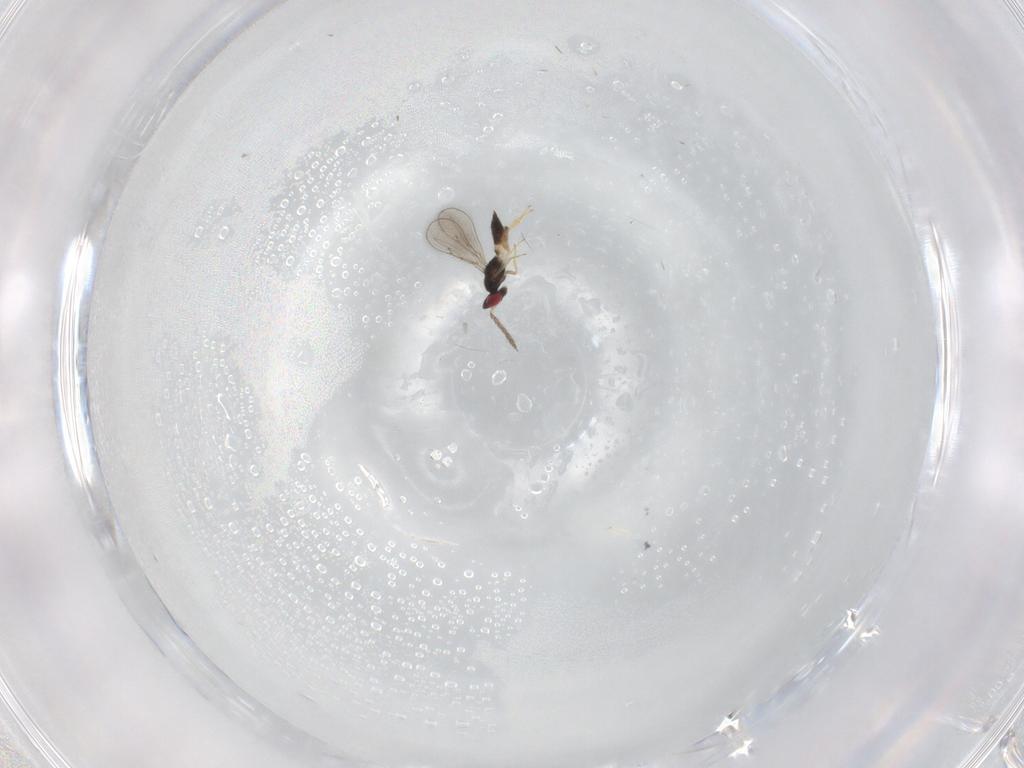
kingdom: Animalia
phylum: Arthropoda
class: Insecta
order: Hymenoptera
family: Eulophidae
